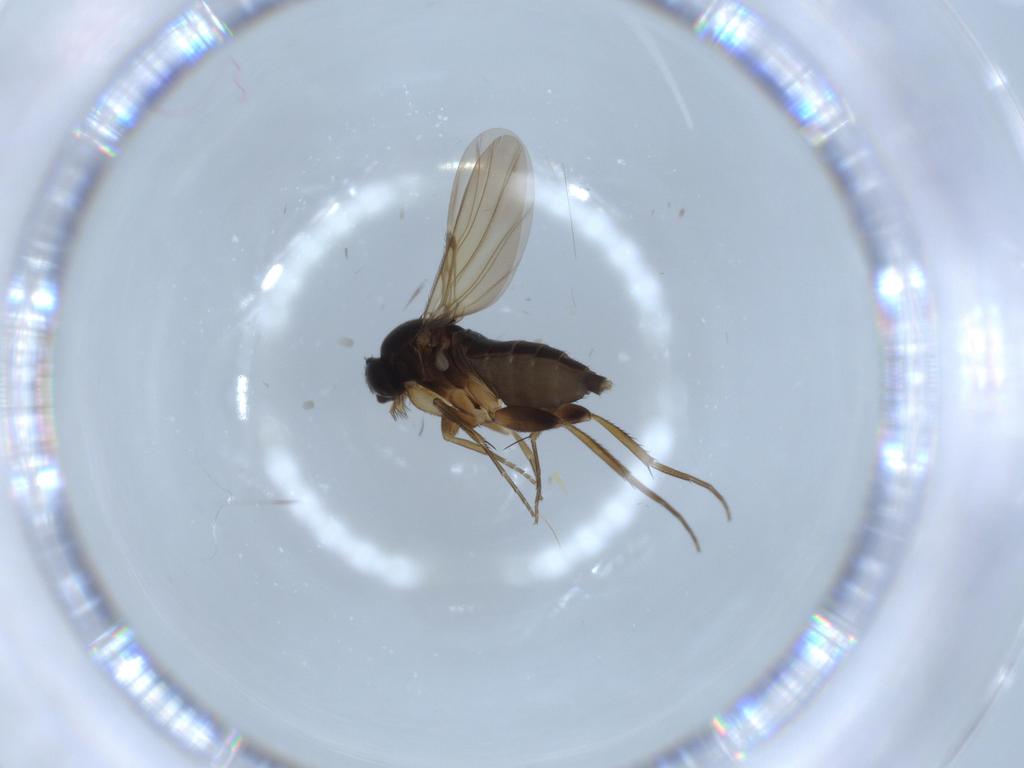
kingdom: Animalia
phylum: Arthropoda
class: Insecta
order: Diptera
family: Phoridae
